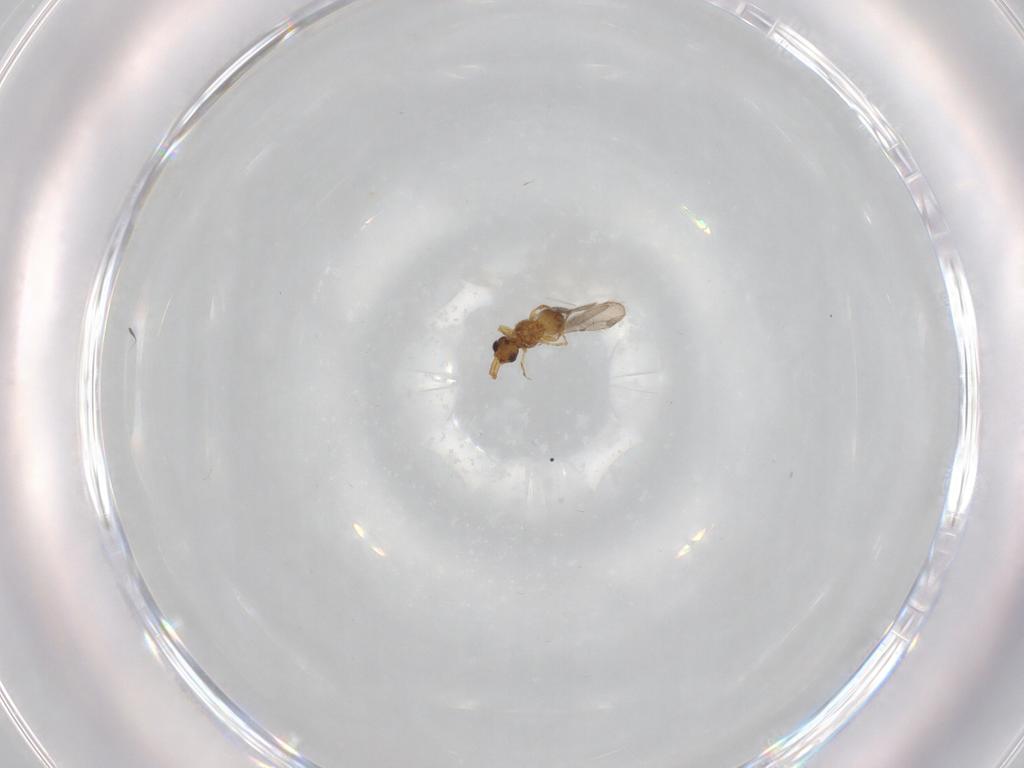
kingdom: Animalia
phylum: Arthropoda
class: Insecta
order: Hymenoptera
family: Ceraphronidae
